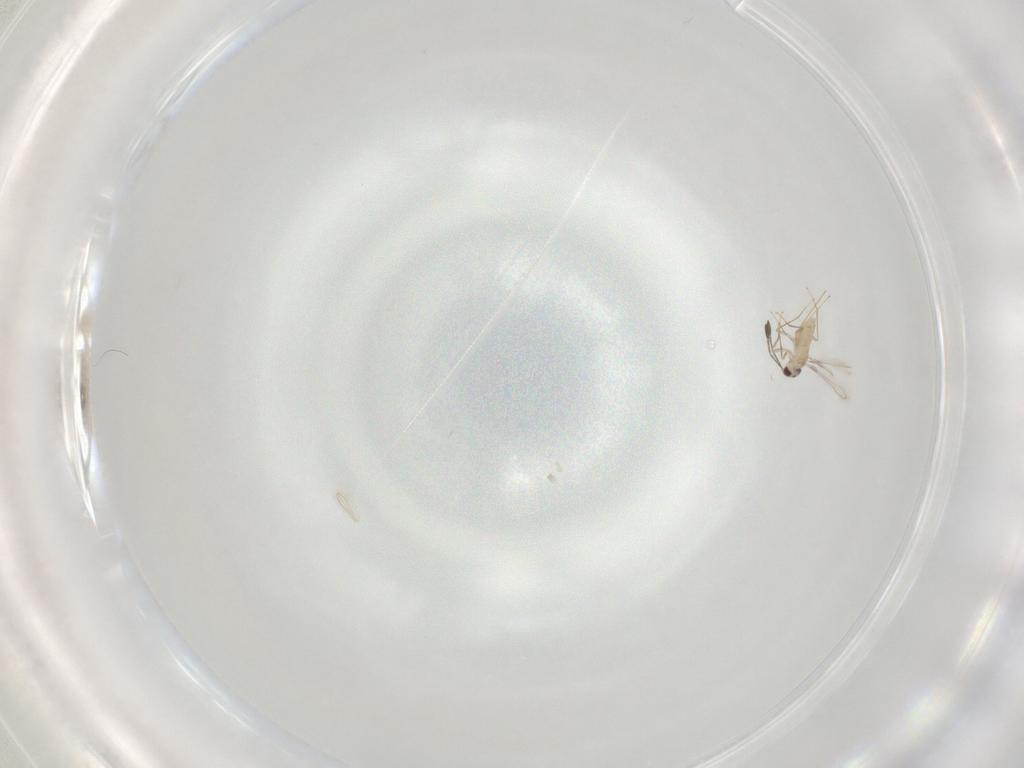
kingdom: Animalia
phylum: Arthropoda
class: Insecta
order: Hymenoptera
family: Mymaridae
